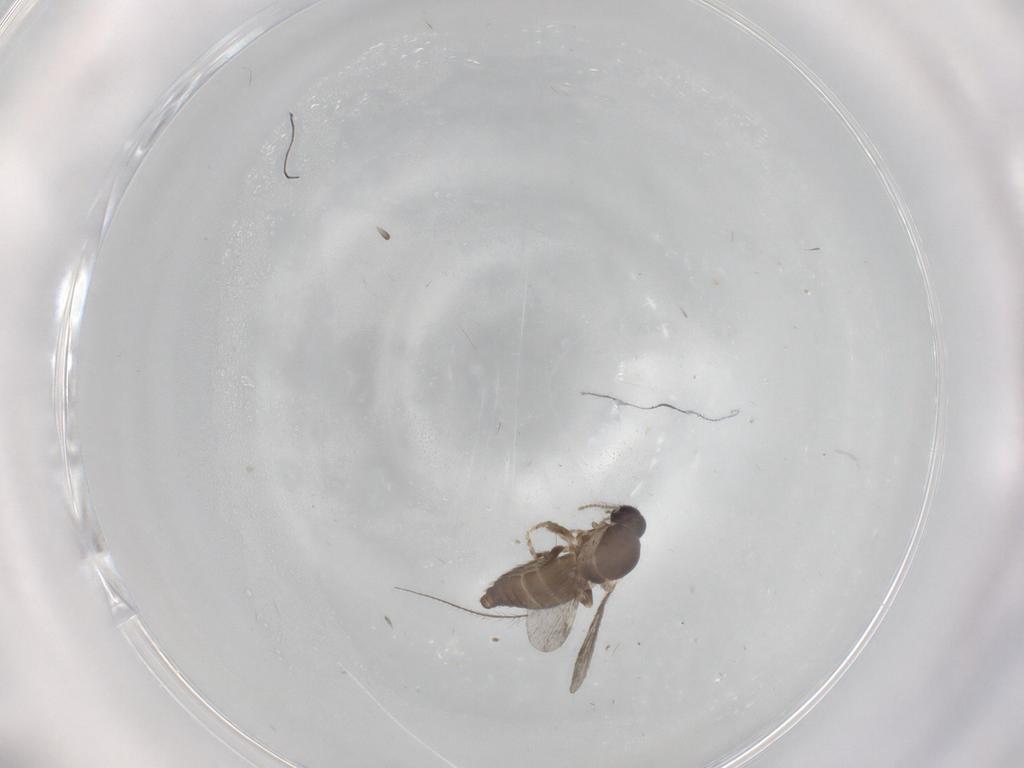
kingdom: Animalia
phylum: Arthropoda
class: Insecta
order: Diptera
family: Ceratopogonidae
